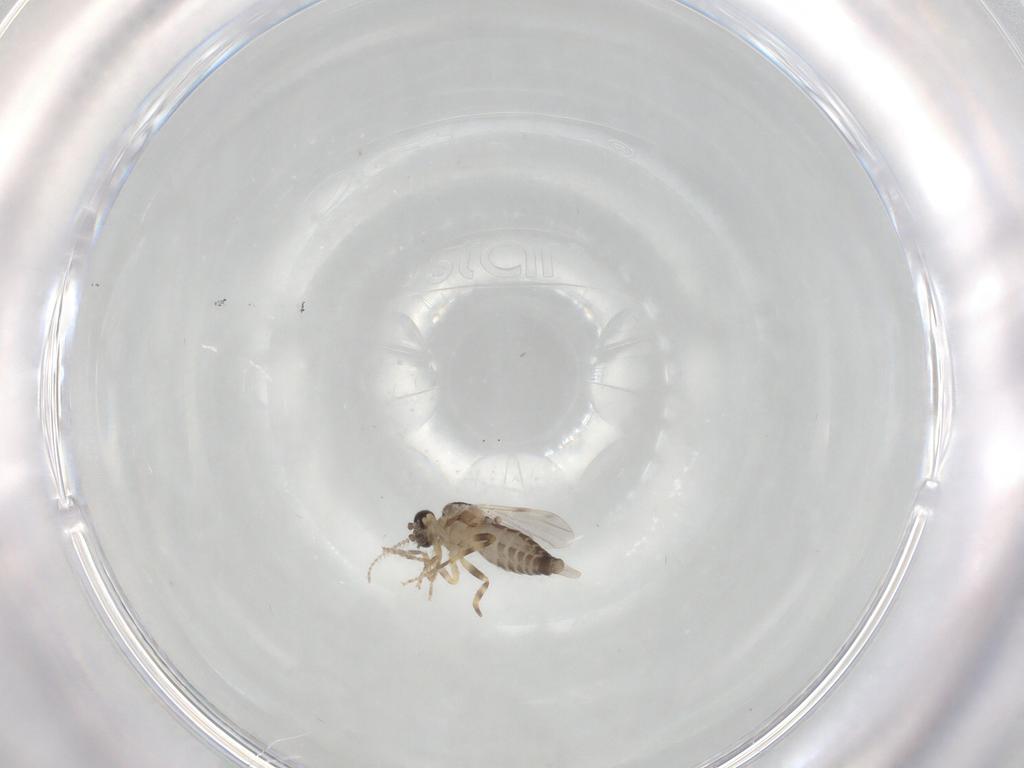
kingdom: Animalia
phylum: Arthropoda
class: Insecta
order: Diptera
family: Ceratopogonidae
